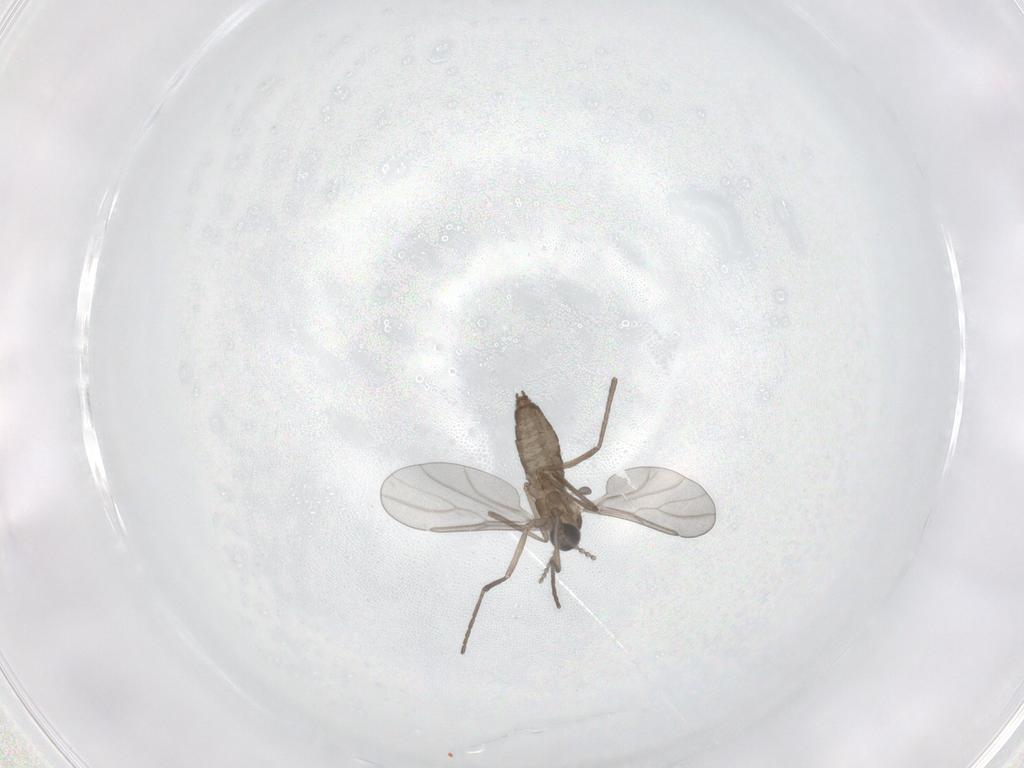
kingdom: Animalia
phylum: Arthropoda
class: Insecta
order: Diptera
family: Cecidomyiidae
